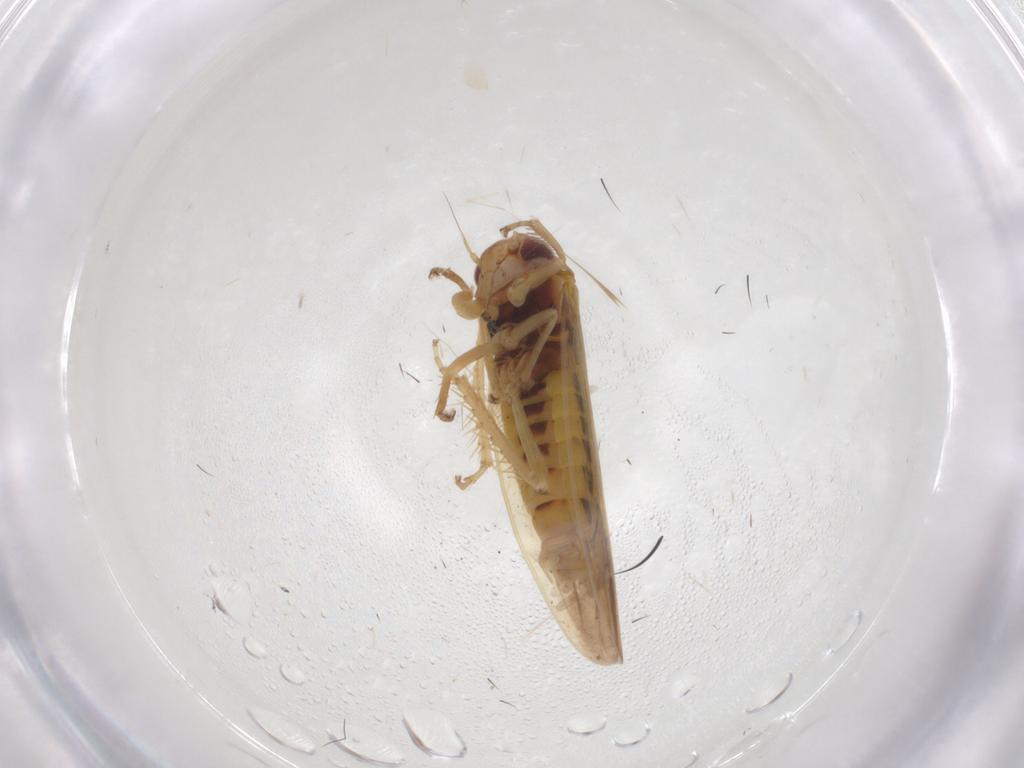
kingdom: Animalia
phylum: Arthropoda
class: Insecta
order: Hemiptera
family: Cicadellidae
